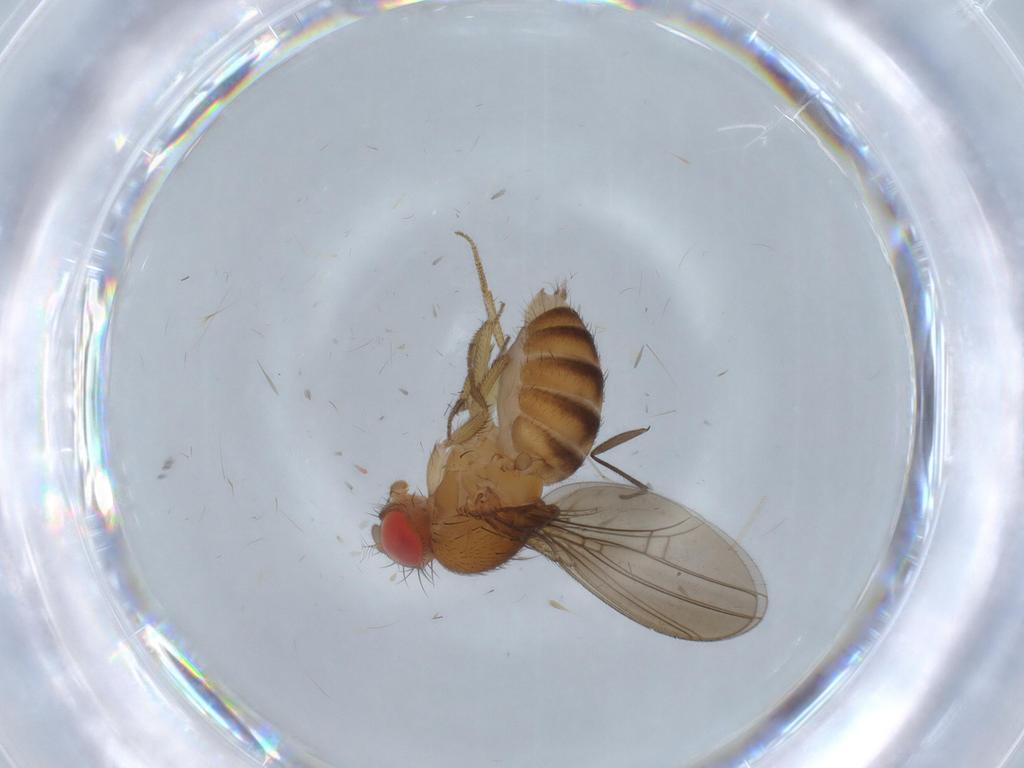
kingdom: Animalia
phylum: Arthropoda
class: Insecta
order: Diptera
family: Drosophilidae
